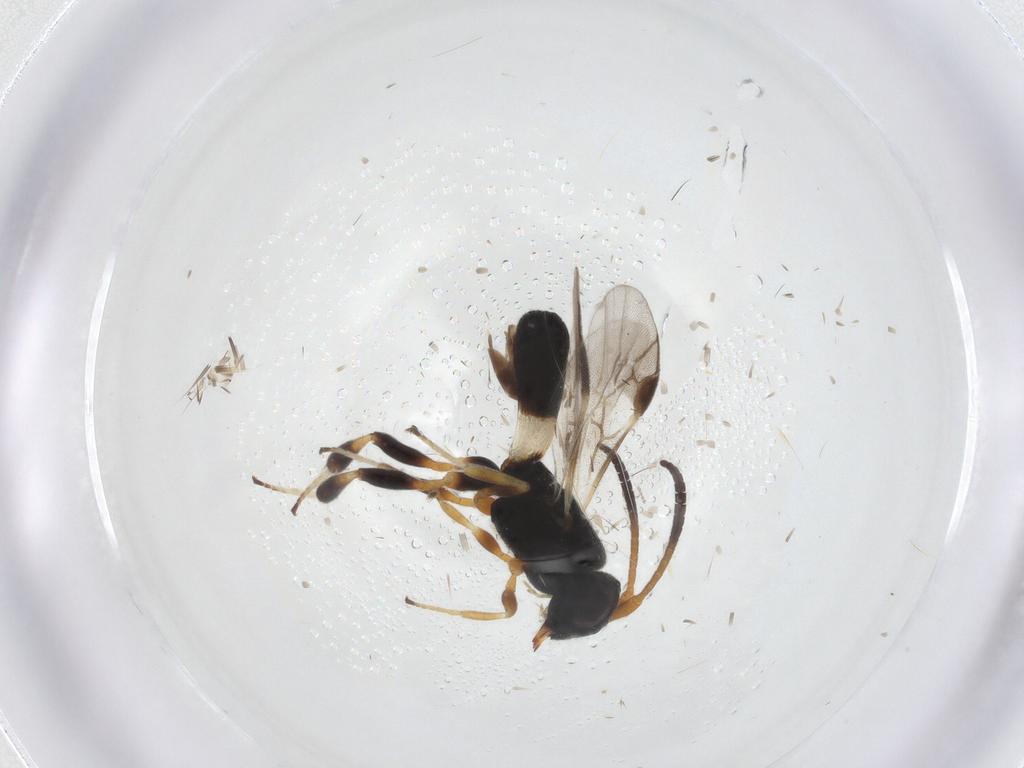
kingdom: Animalia
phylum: Arthropoda
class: Insecta
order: Hymenoptera
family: Braconidae
